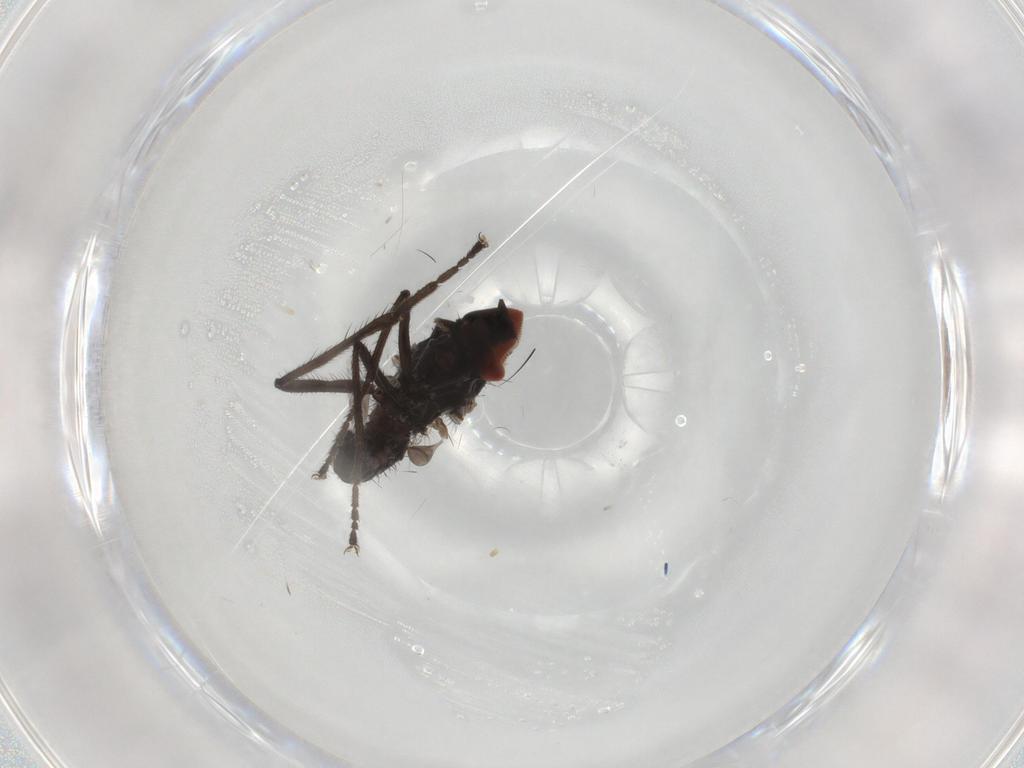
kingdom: Animalia
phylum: Arthropoda
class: Insecta
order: Diptera
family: Hybotidae
